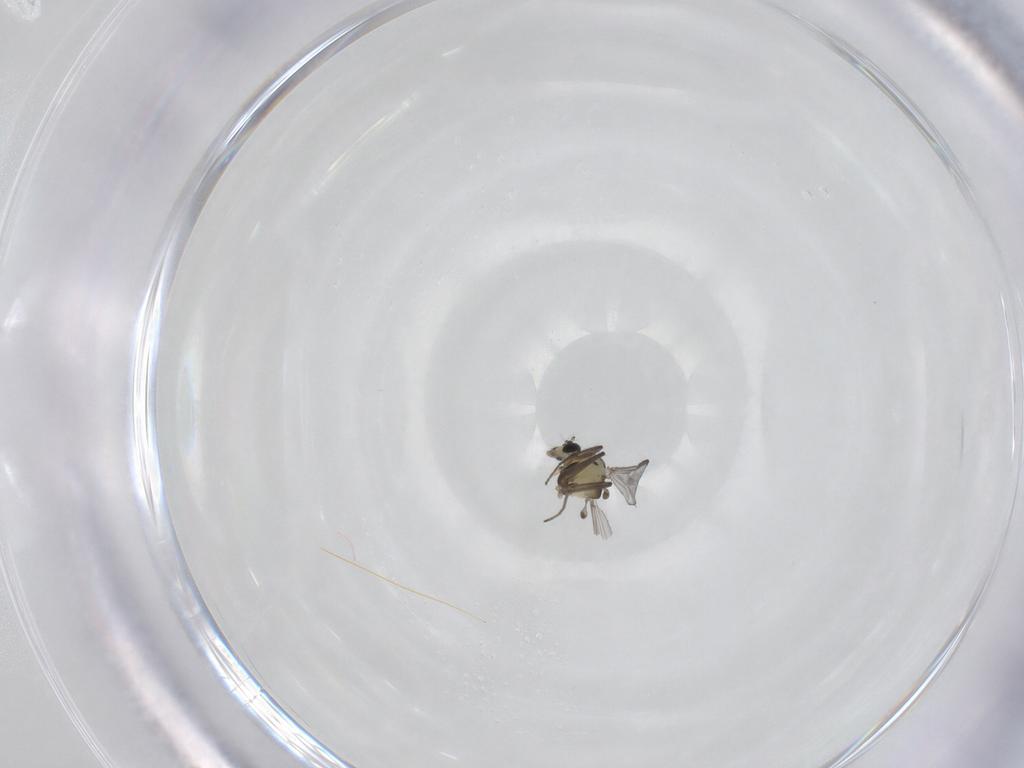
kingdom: Animalia
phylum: Arthropoda
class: Insecta
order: Diptera
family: Chironomidae
